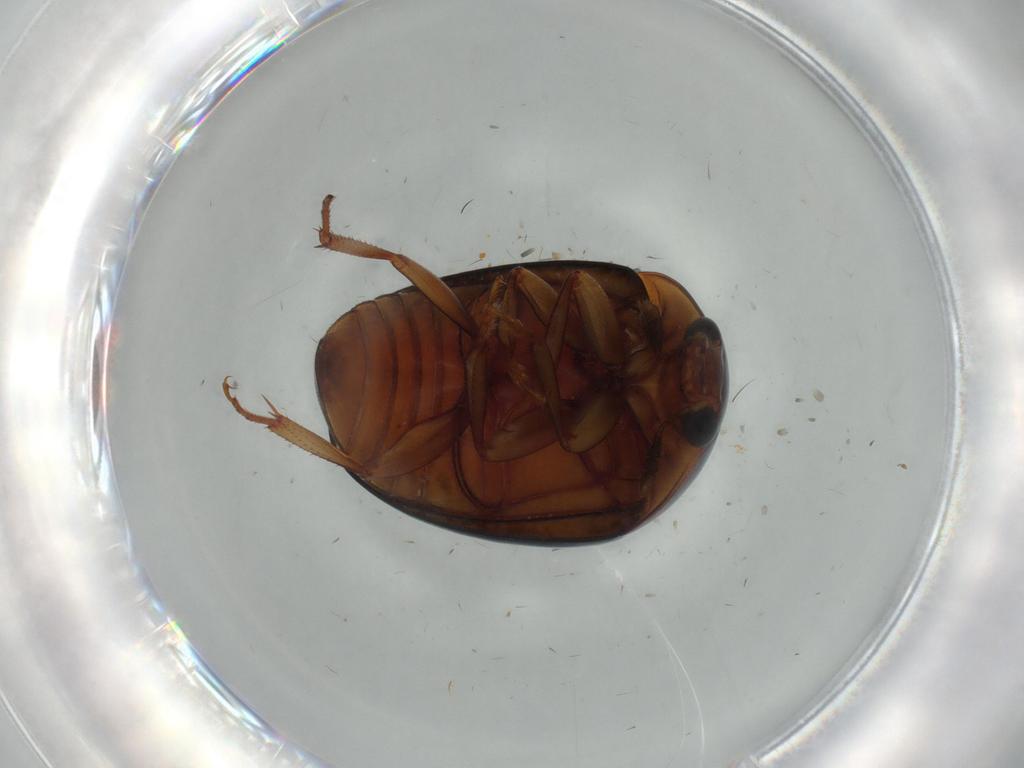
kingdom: Animalia
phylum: Arthropoda
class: Insecta
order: Coleoptera
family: Nitidulidae
